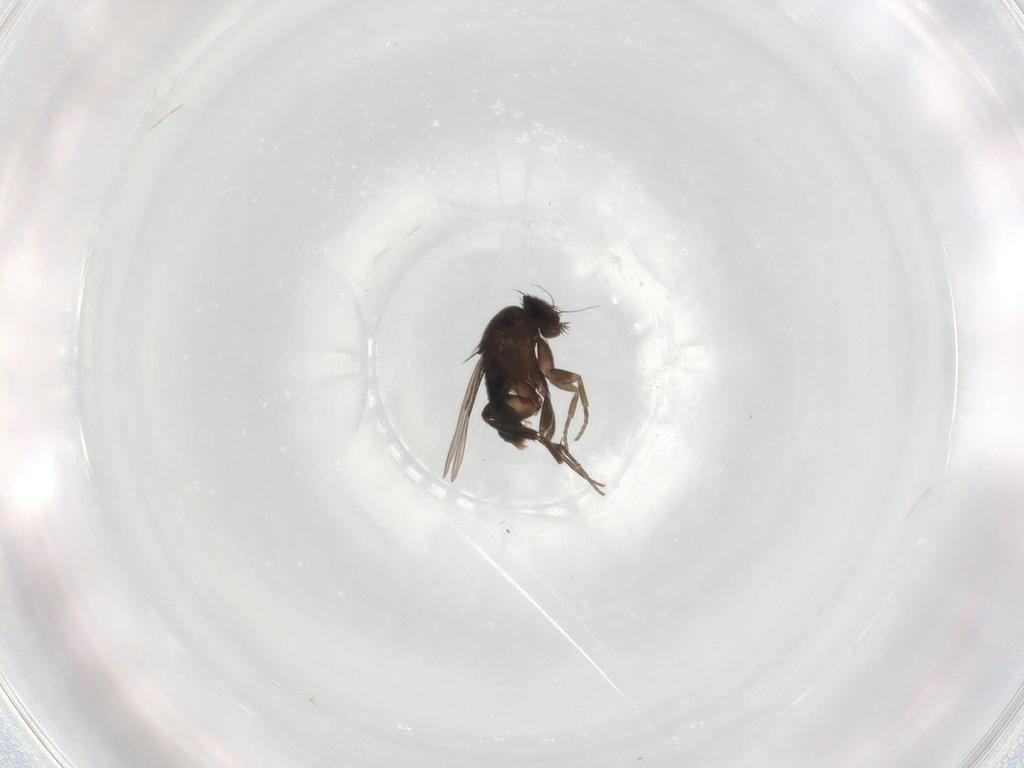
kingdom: Animalia
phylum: Arthropoda
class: Insecta
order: Diptera
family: Phoridae
